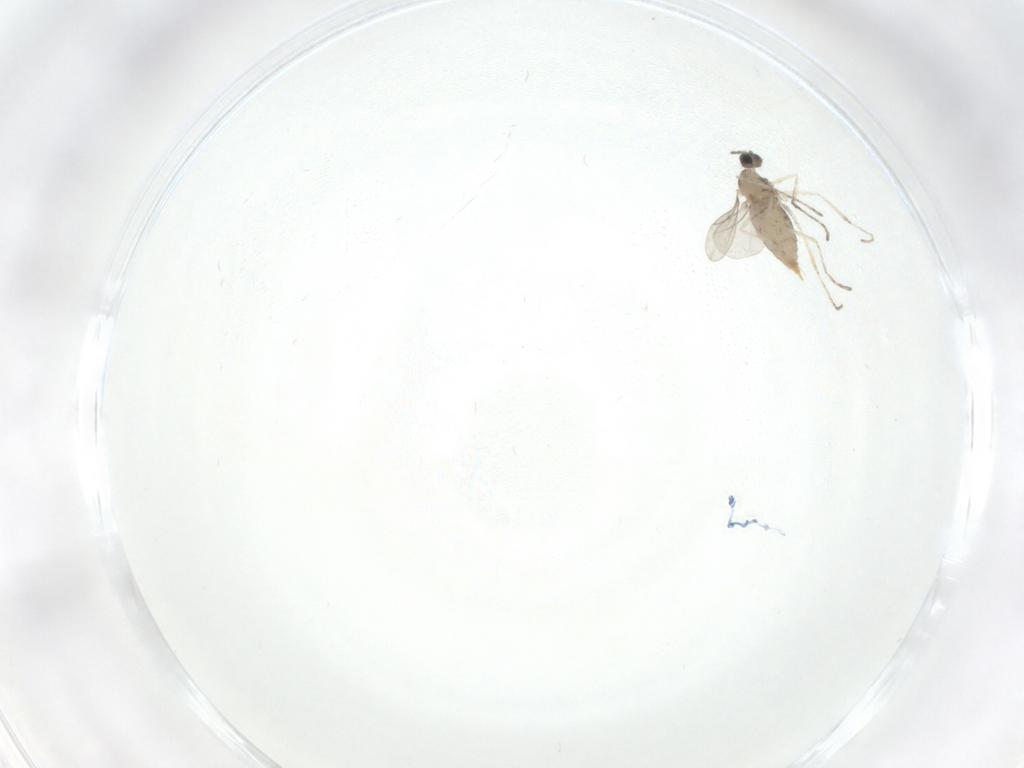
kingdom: Animalia
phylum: Arthropoda
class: Insecta
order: Diptera
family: Cecidomyiidae
